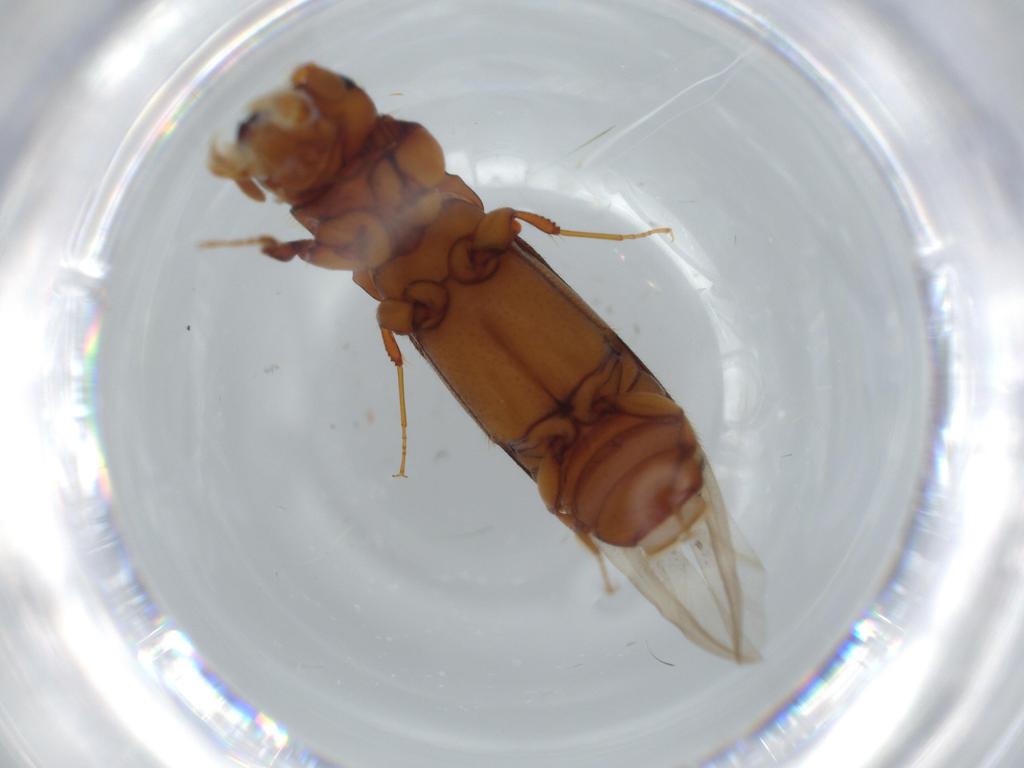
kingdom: Animalia
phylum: Arthropoda
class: Insecta
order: Coleoptera
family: Curculionidae
